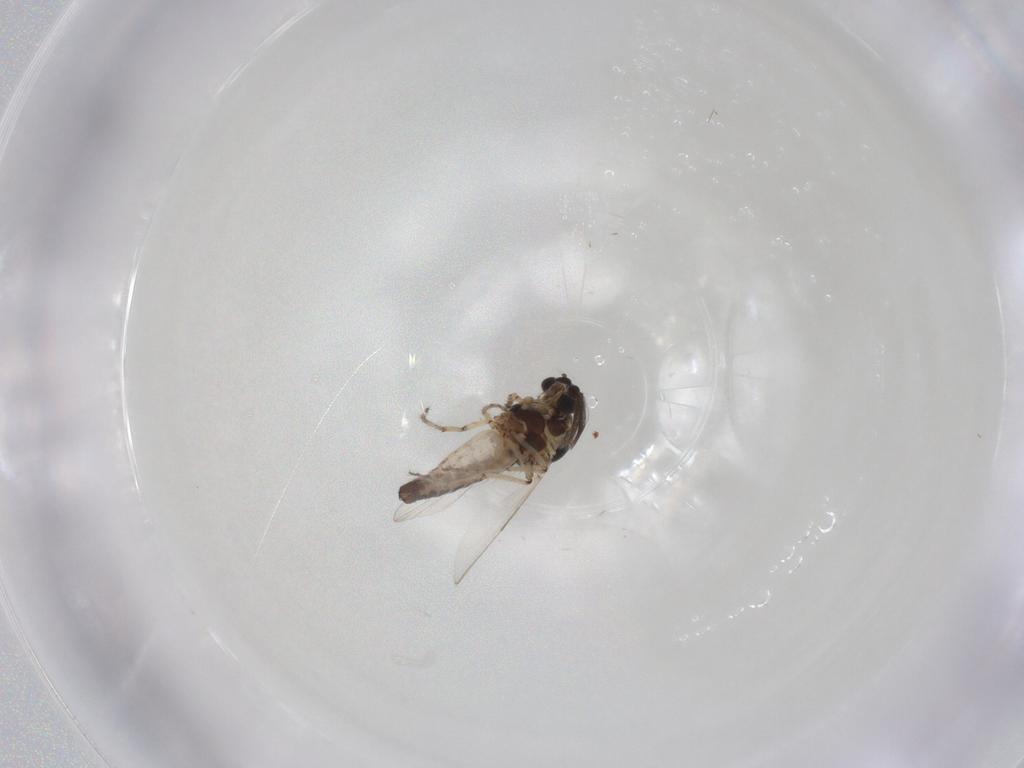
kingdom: Animalia
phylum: Arthropoda
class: Insecta
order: Diptera
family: Ceratopogonidae
